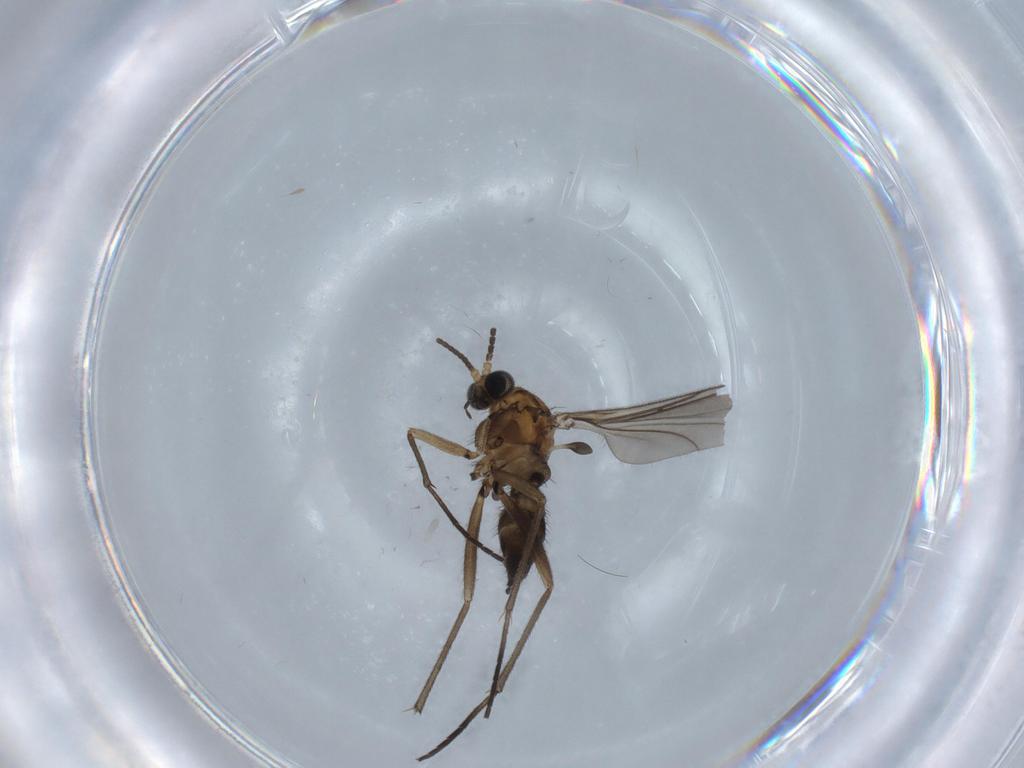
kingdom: Animalia
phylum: Arthropoda
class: Insecta
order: Diptera
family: Sciaridae
